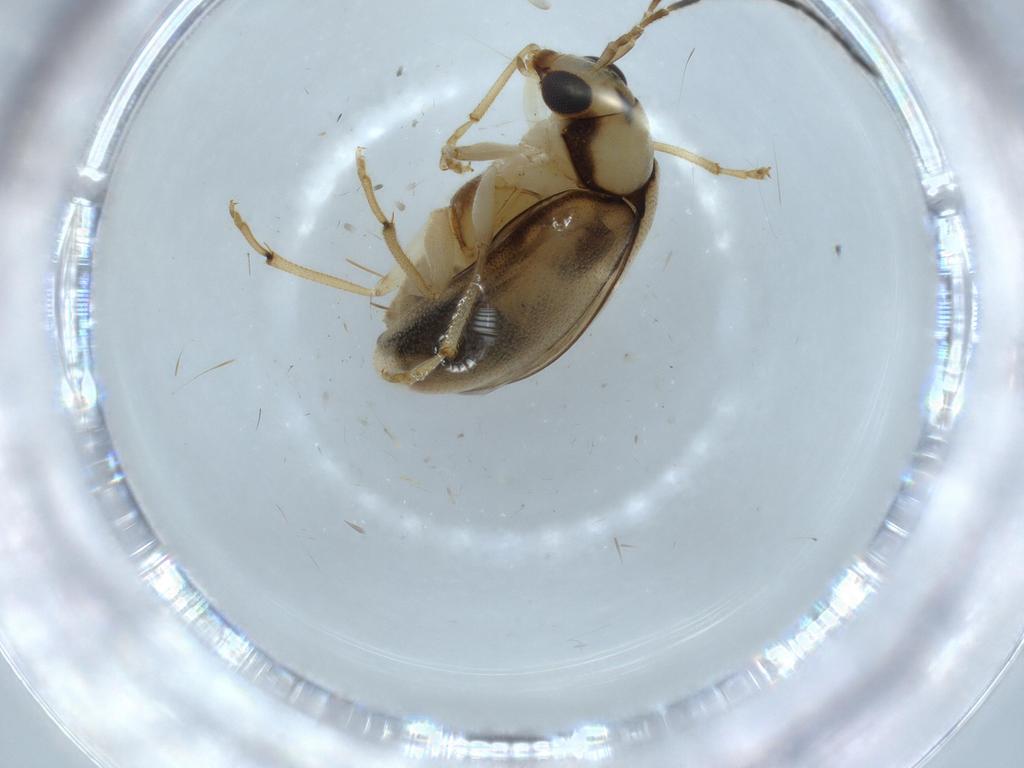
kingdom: Animalia
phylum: Arthropoda
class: Insecta
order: Coleoptera
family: Chrysomelidae
